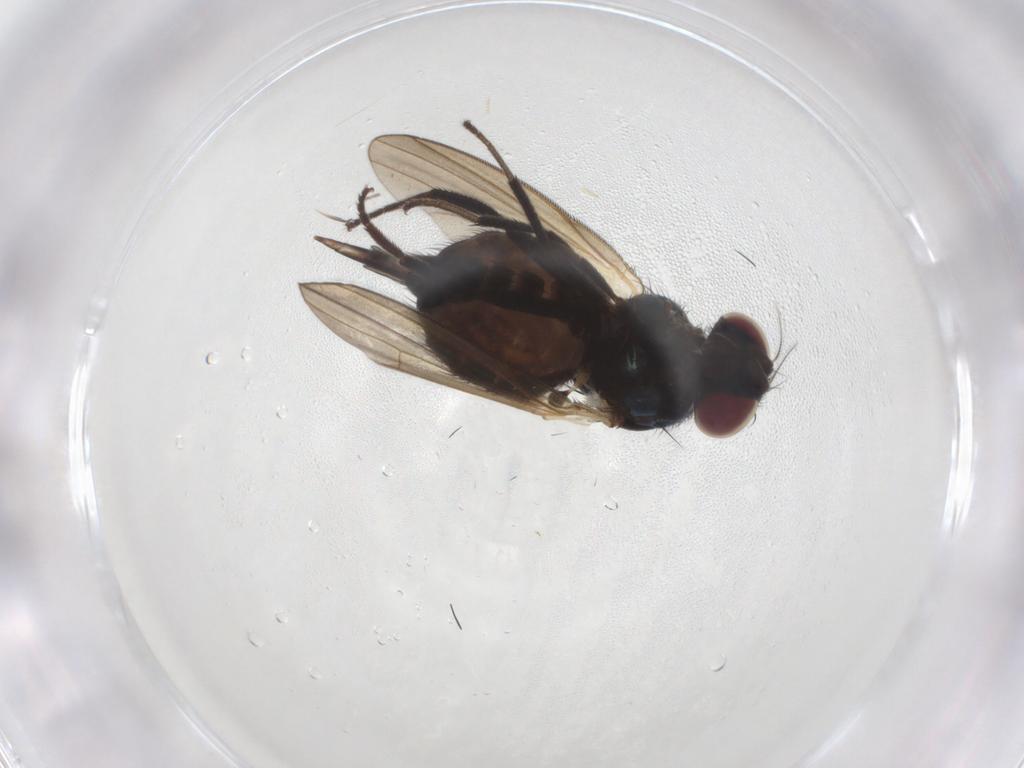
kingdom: Animalia
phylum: Arthropoda
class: Insecta
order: Diptera
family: Lonchaeidae
